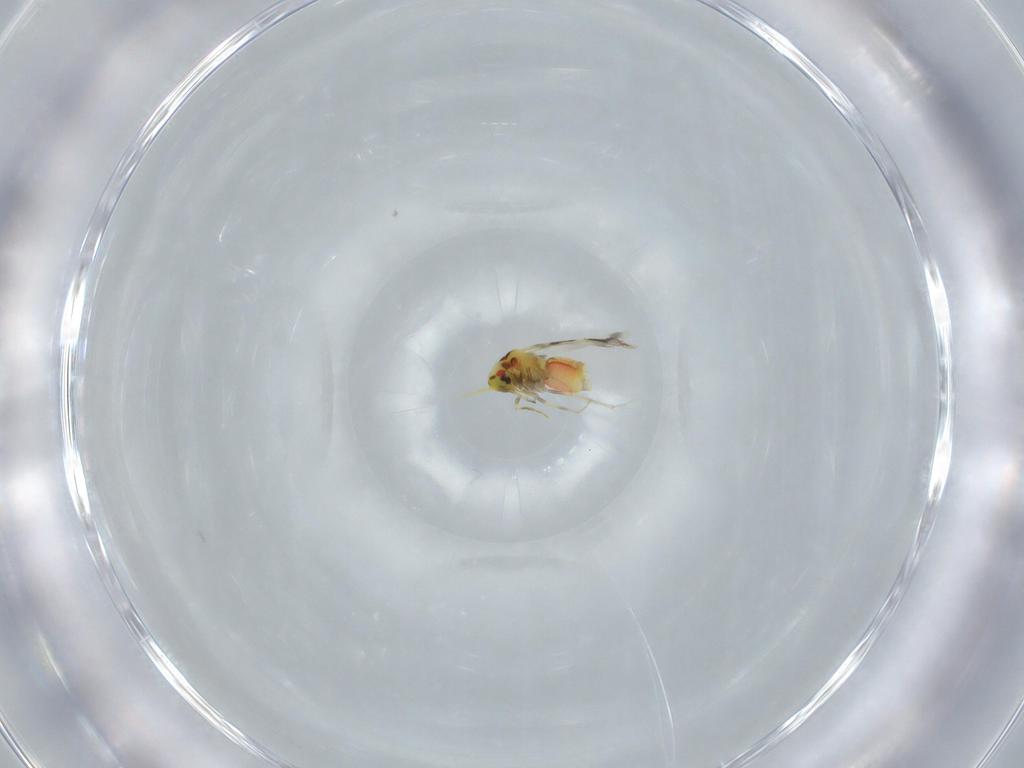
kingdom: Animalia
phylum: Arthropoda
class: Insecta
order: Hemiptera
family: Aleyrodidae
